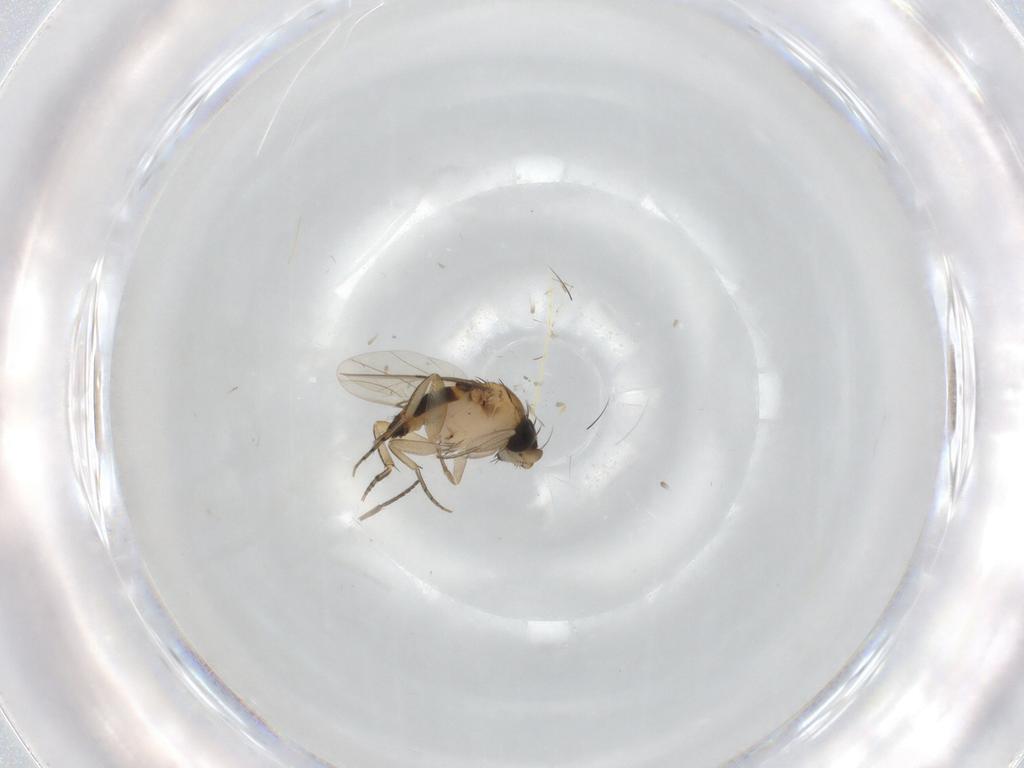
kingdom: Animalia
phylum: Arthropoda
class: Insecta
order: Diptera
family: Phoridae
